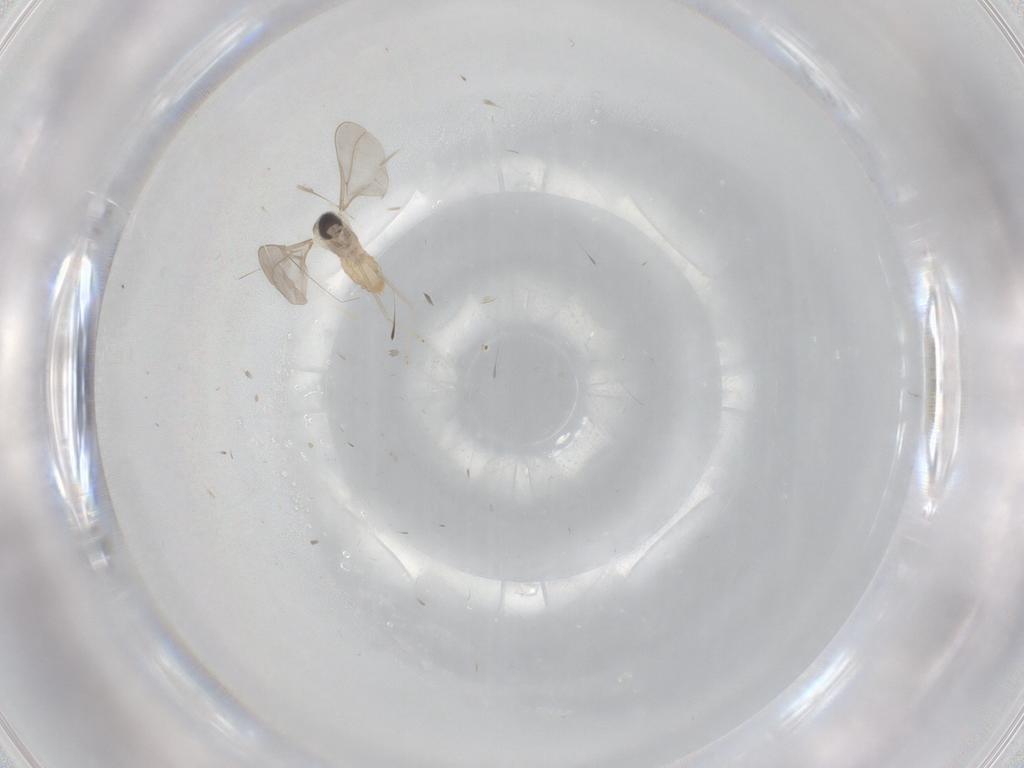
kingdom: Animalia
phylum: Arthropoda
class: Insecta
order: Diptera
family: Cecidomyiidae
